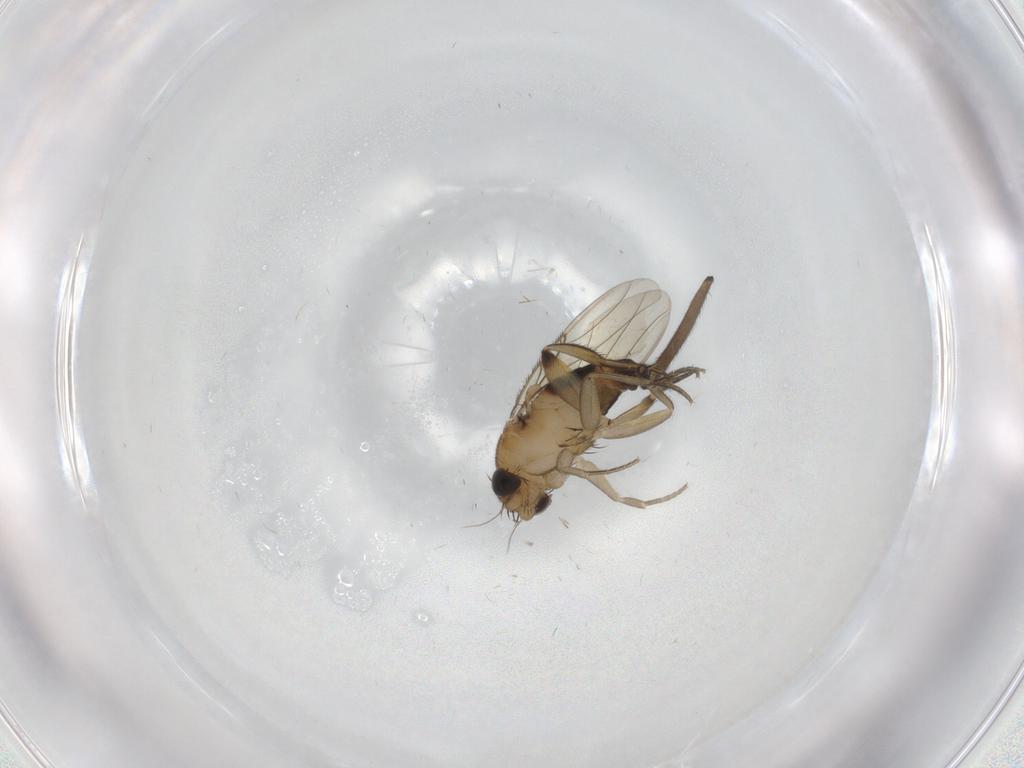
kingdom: Animalia
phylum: Arthropoda
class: Insecta
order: Diptera
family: Phoridae
